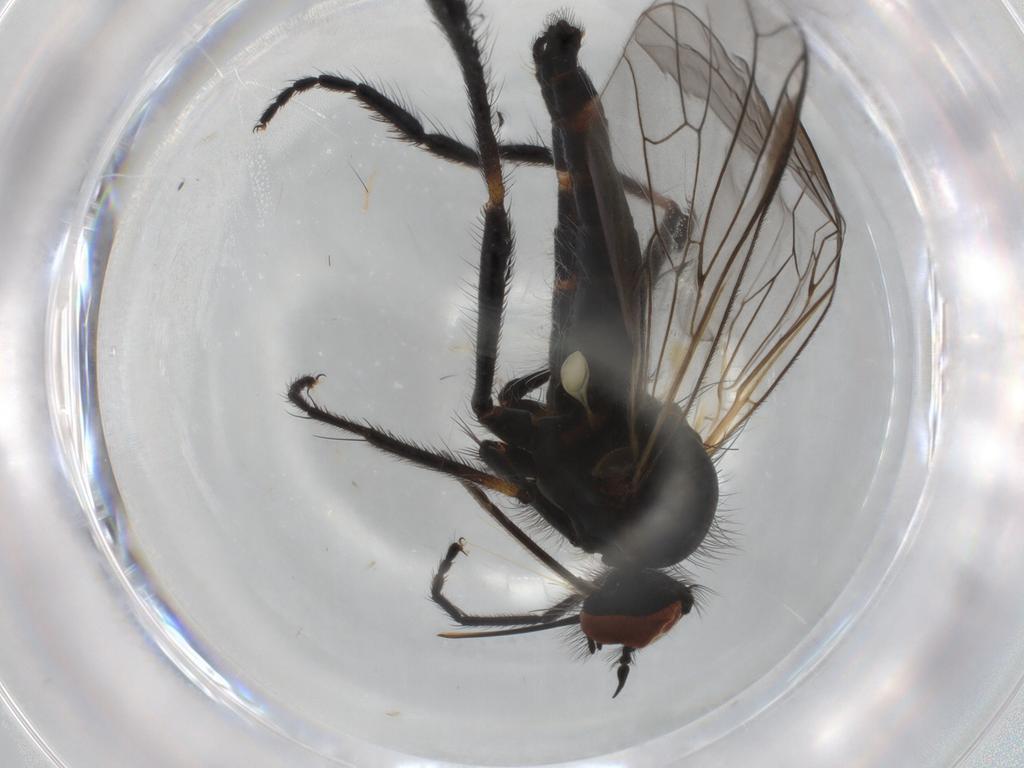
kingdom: Animalia
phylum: Arthropoda
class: Insecta
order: Diptera
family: Empididae
